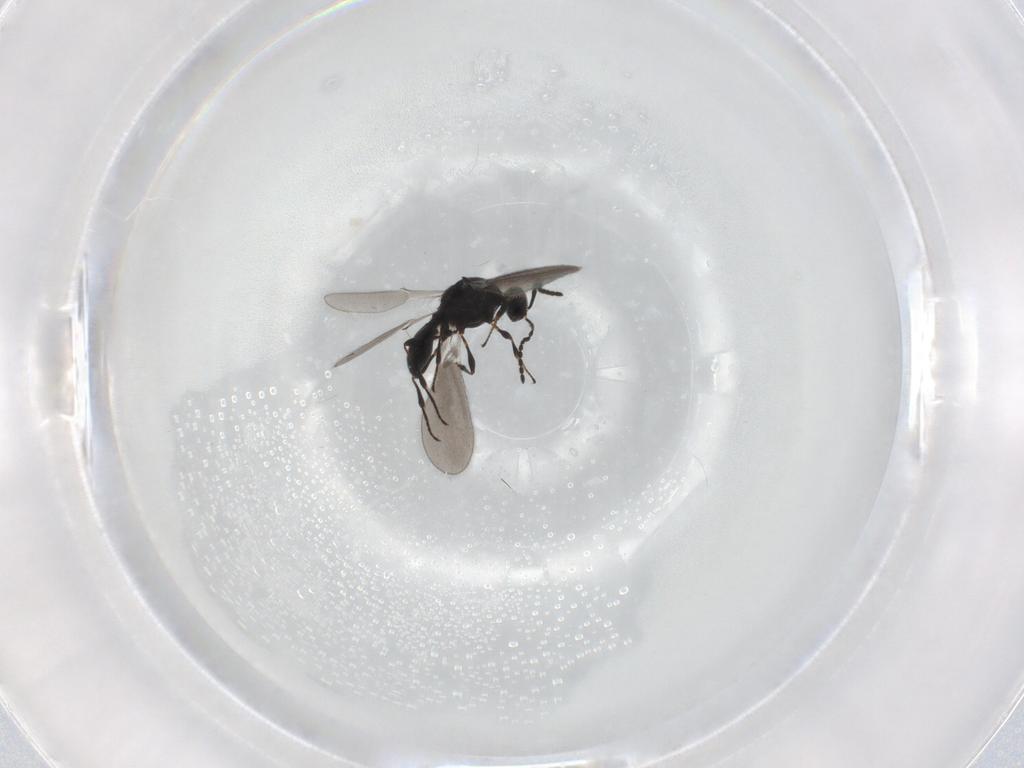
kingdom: Animalia
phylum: Arthropoda
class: Insecta
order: Hymenoptera
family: Platygastridae
